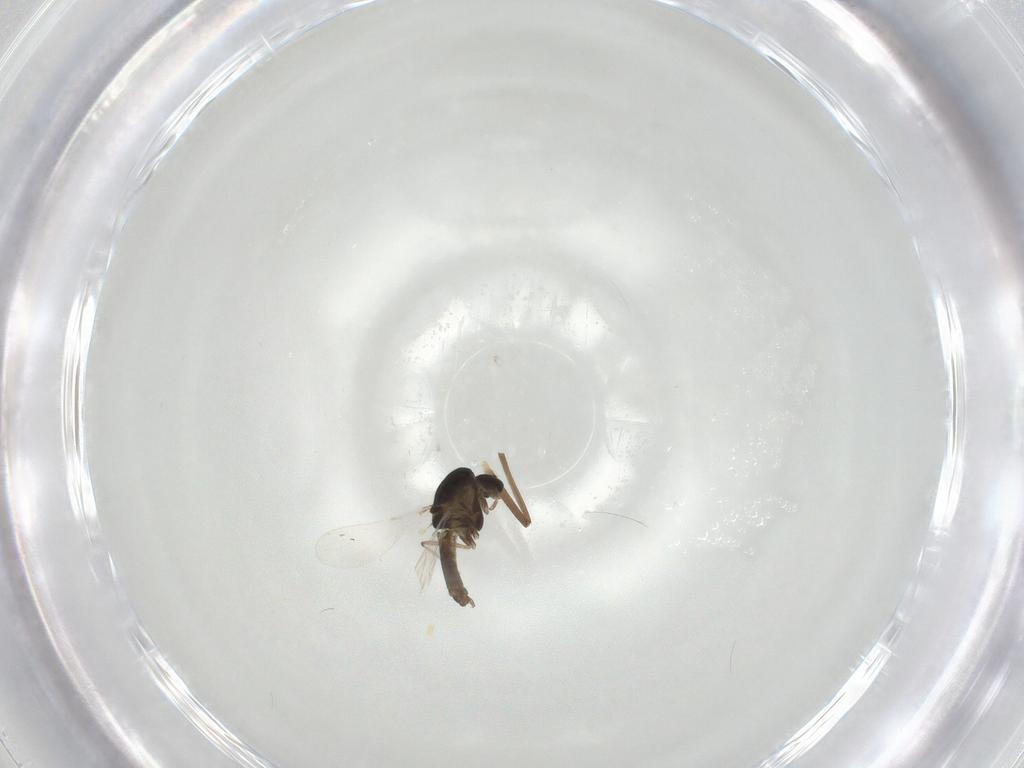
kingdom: Animalia
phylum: Arthropoda
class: Insecta
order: Diptera
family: Chironomidae
